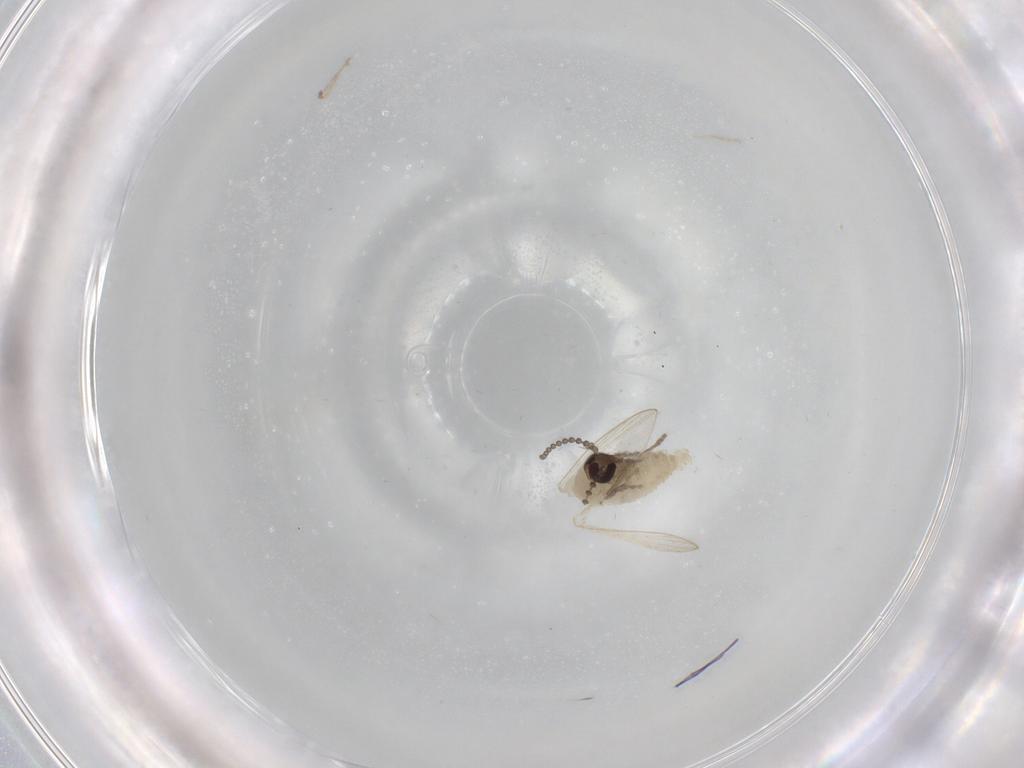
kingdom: Animalia
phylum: Arthropoda
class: Insecta
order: Diptera
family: Psychodidae
